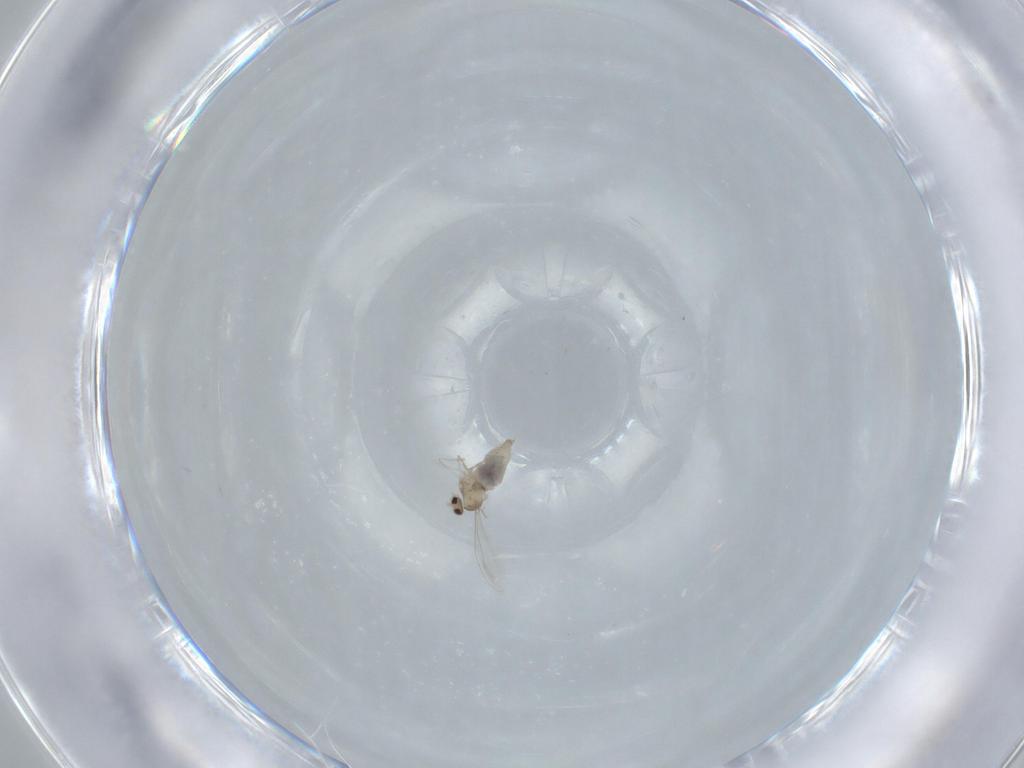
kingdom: Animalia
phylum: Arthropoda
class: Insecta
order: Diptera
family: Cecidomyiidae
